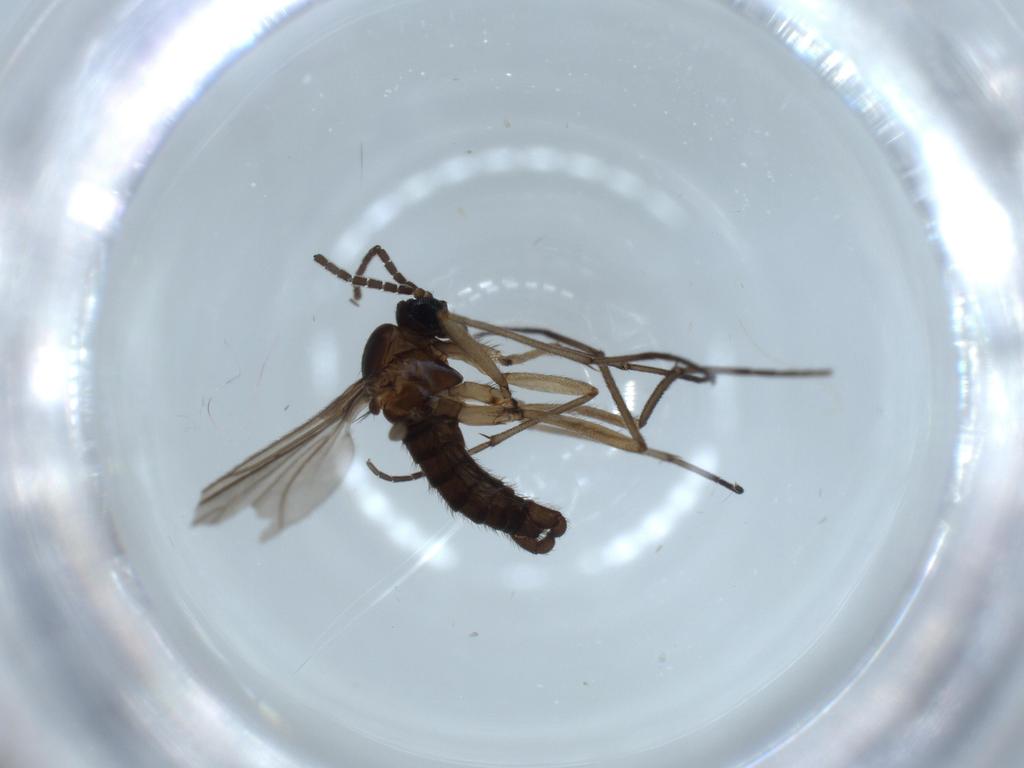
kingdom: Animalia
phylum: Arthropoda
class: Insecta
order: Diptera
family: Sciaridae
